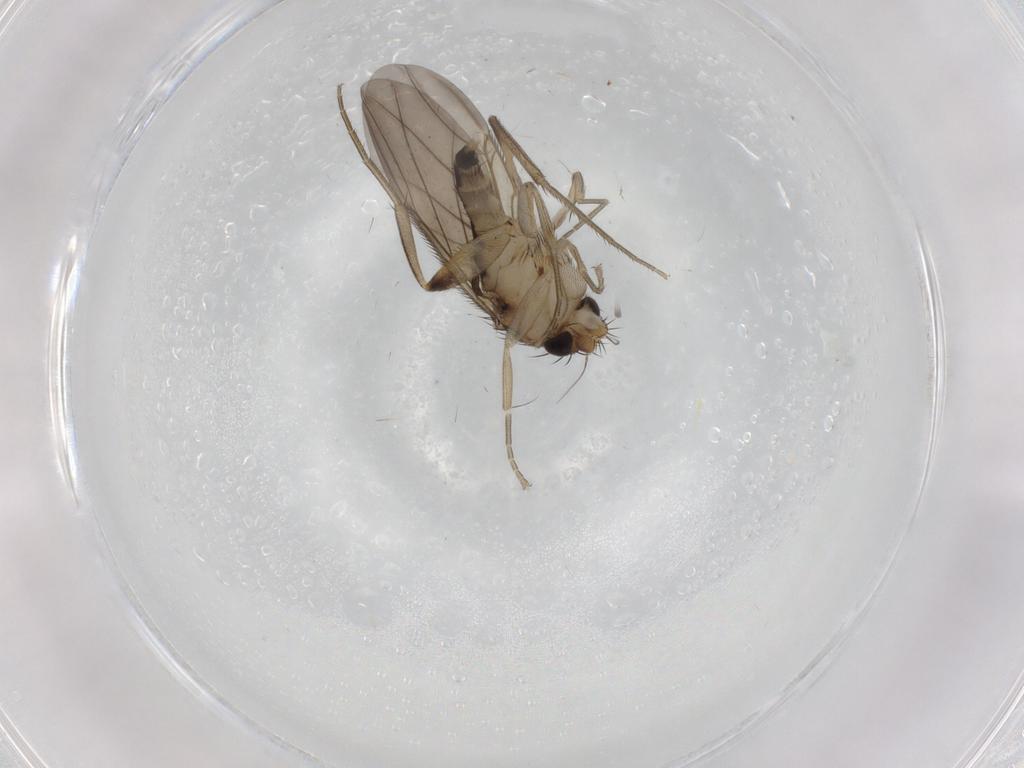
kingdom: Animalia
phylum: Arthropoda
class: Insecta
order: Diptera
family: Phoridae
